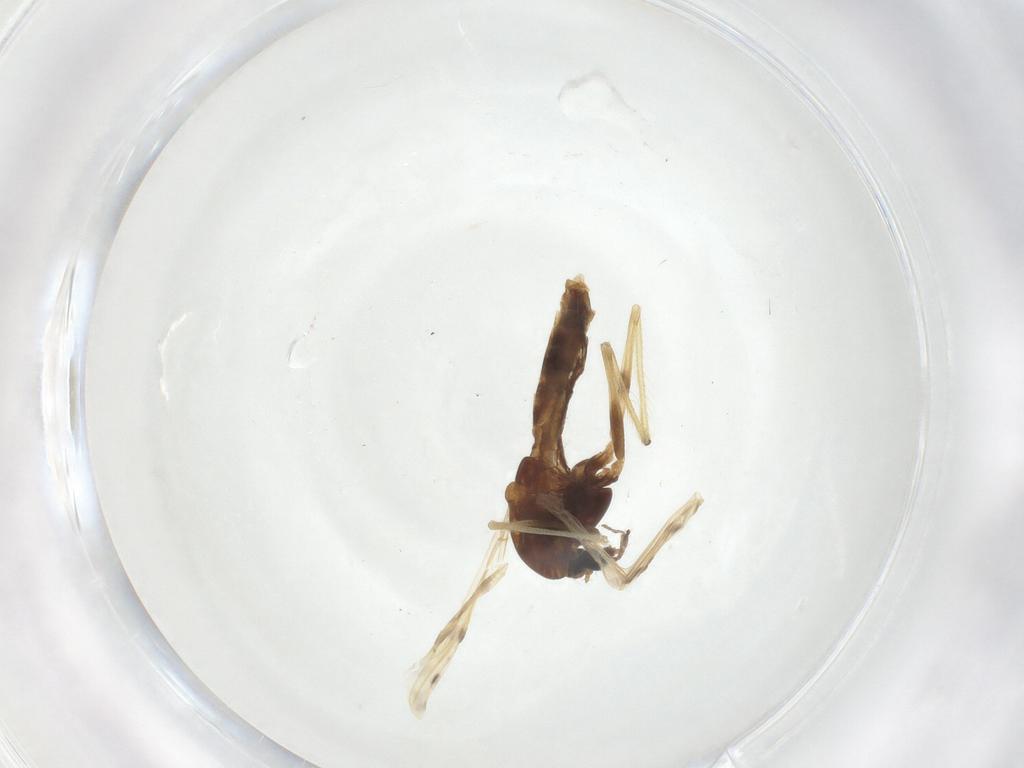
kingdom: Animalia
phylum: Arthropoda
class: Insecta
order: Diptera
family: Chironomidae
